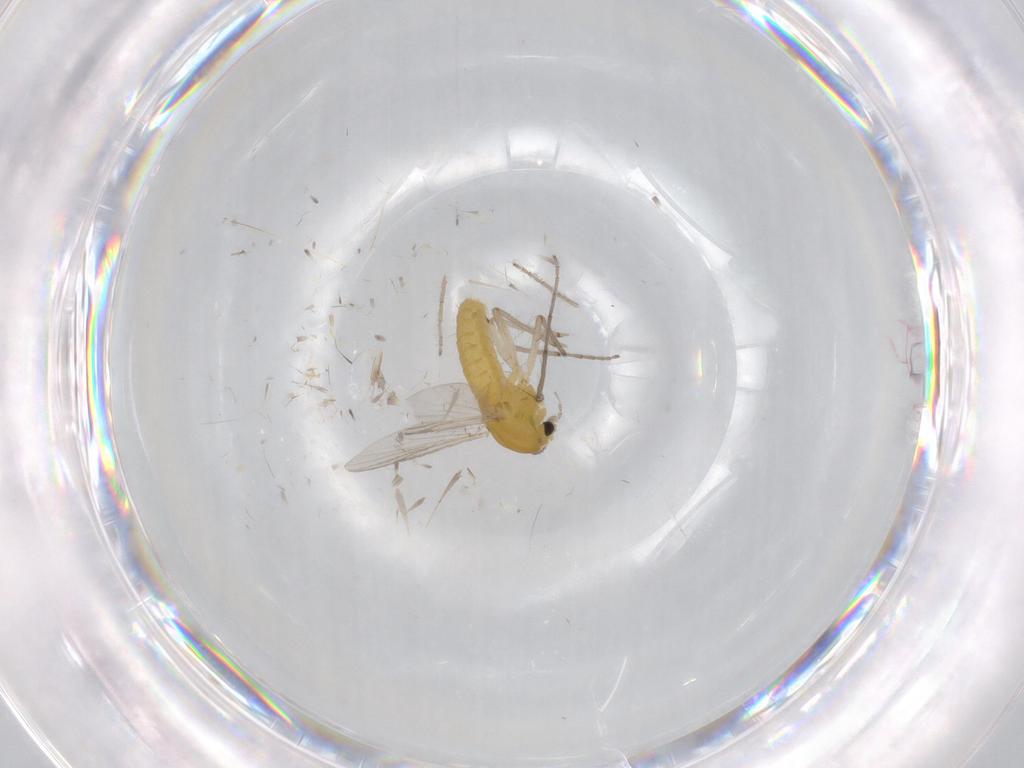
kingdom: Animalia
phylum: Arthropoda
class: Insecta
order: Diptera
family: Chironomidae
